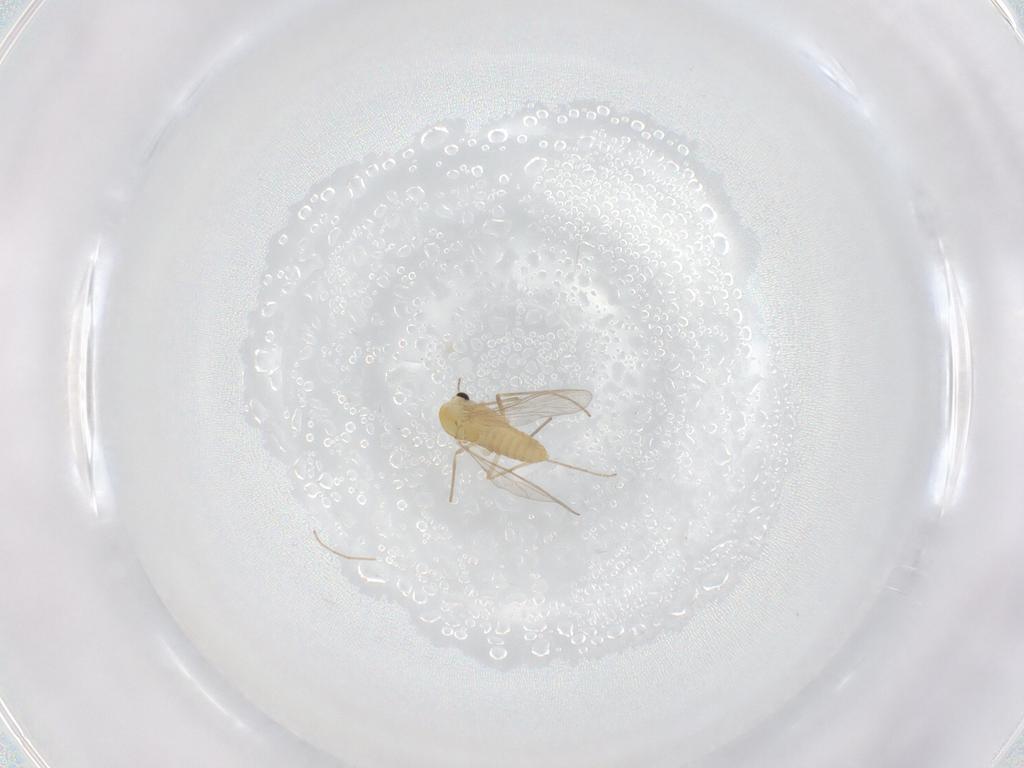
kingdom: Animalia
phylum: Arthropoda
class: Insecta
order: Diptera
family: Chironomidae
